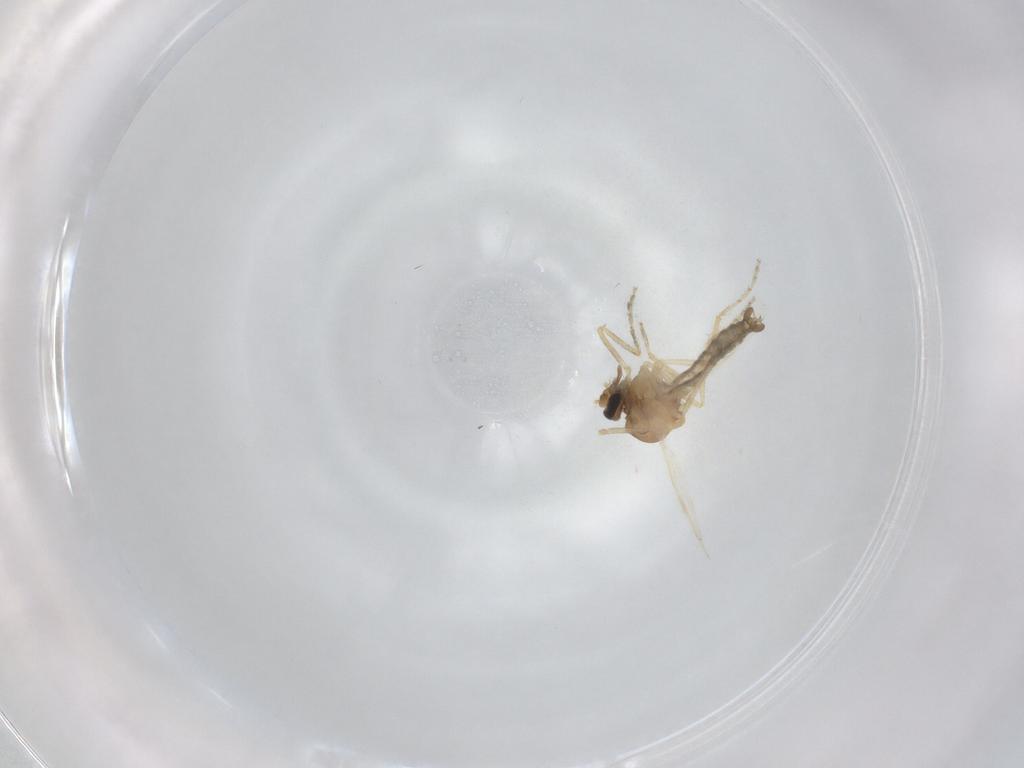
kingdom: Animalia
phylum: Arthropoda
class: Insecta
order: Diptera
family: Ceratopogonidae
